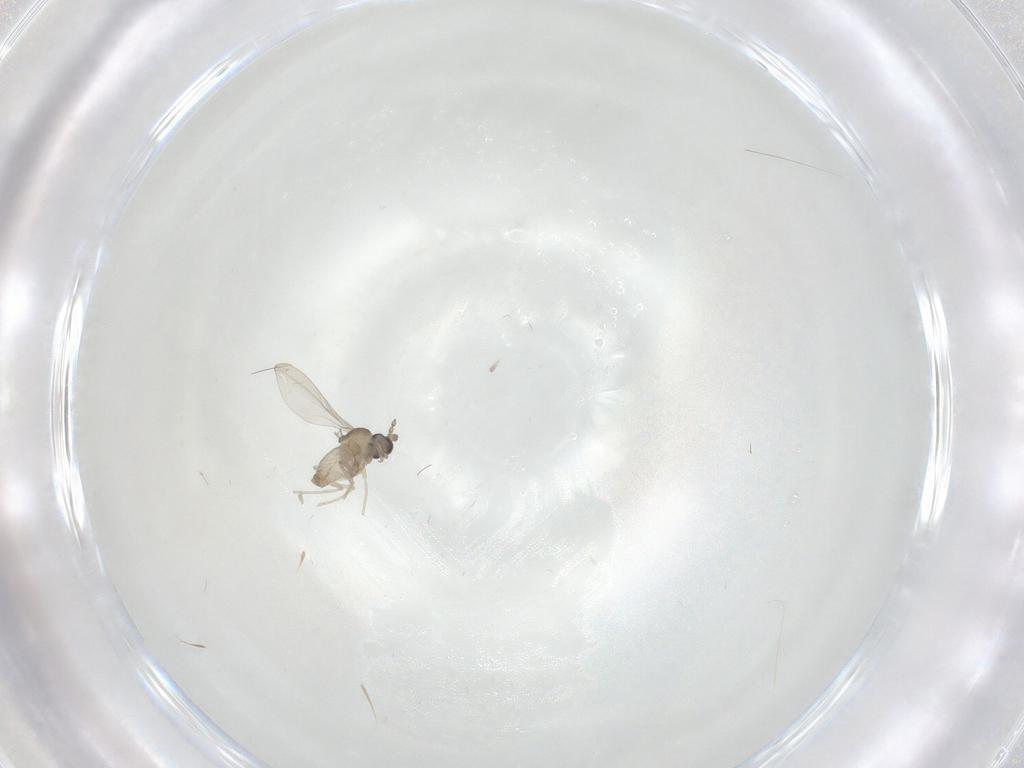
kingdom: Animalia
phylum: Arthropoda
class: Insecta
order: Diptera
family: Cecidomyiidae
